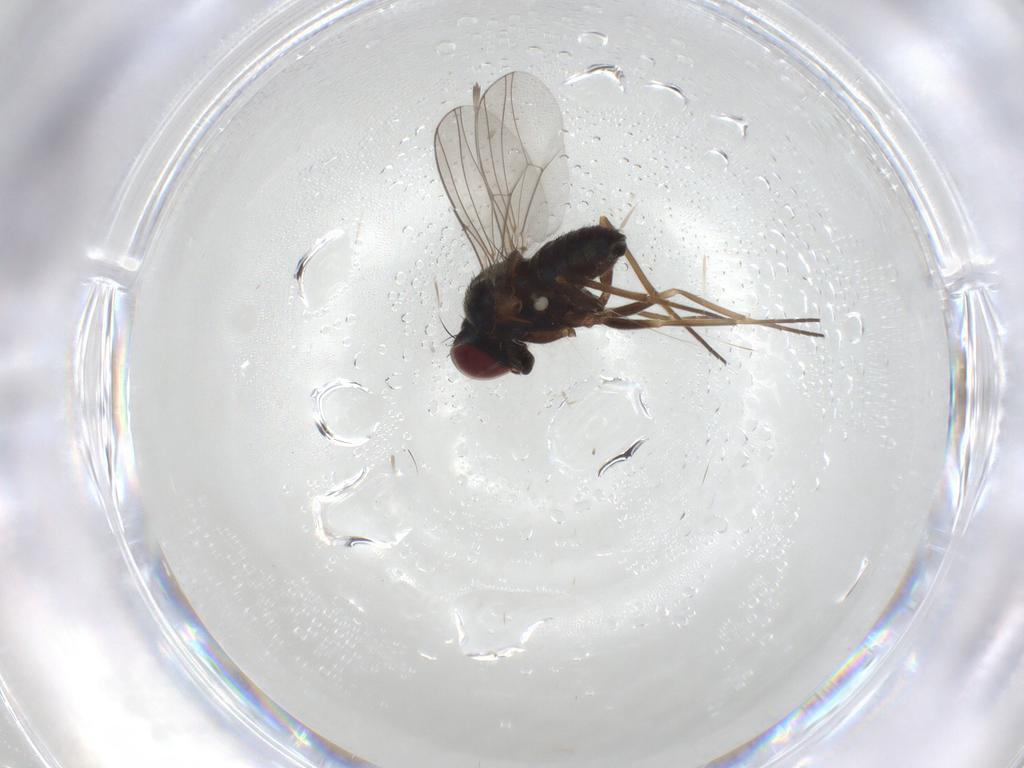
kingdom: Animalia
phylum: Arthropoda
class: Insecta
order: Diptera
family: Dolichopodidae
